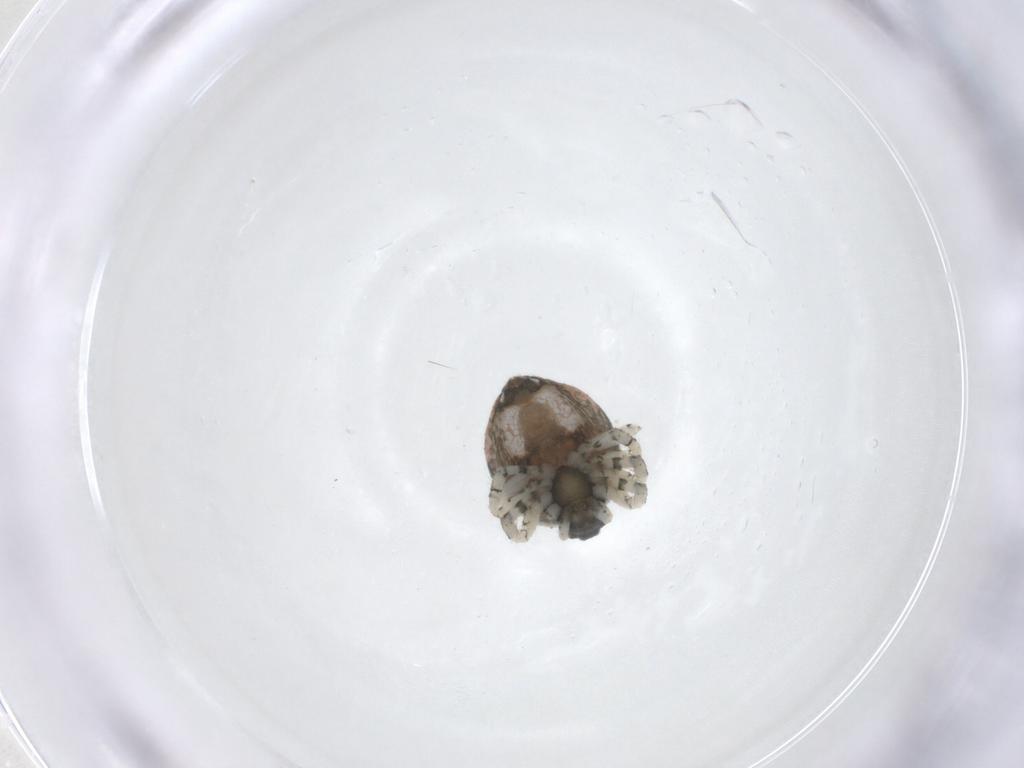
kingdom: Animalia
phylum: Arthropoda
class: Arachnida
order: Araneae
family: Theridiidae
